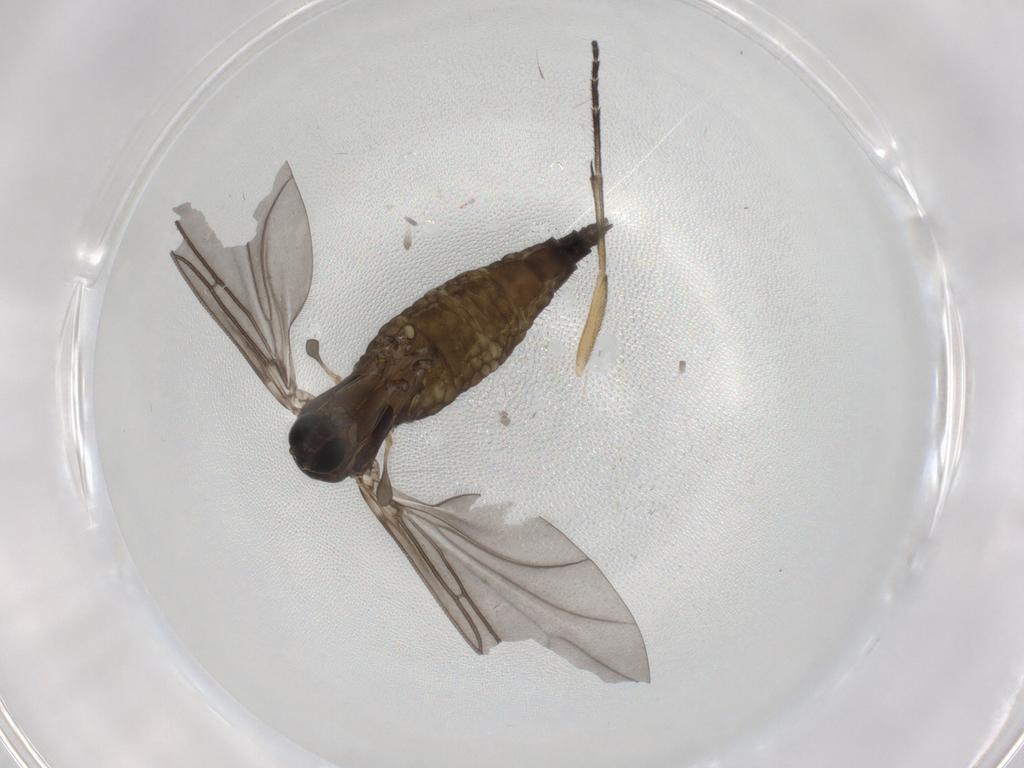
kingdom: Animalia
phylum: Arthropoda
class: Insecta
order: Diptera
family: Sciaridae
